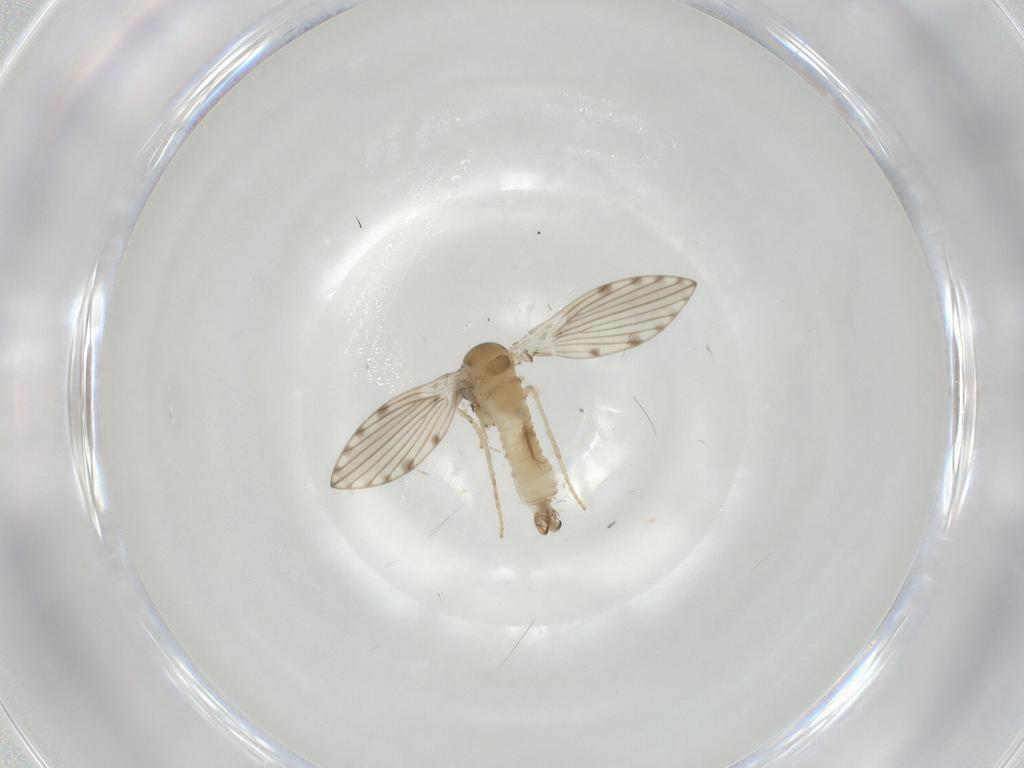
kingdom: Animalia
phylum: Arthropoda
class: Insecta
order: Diptera
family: Psychodidae
